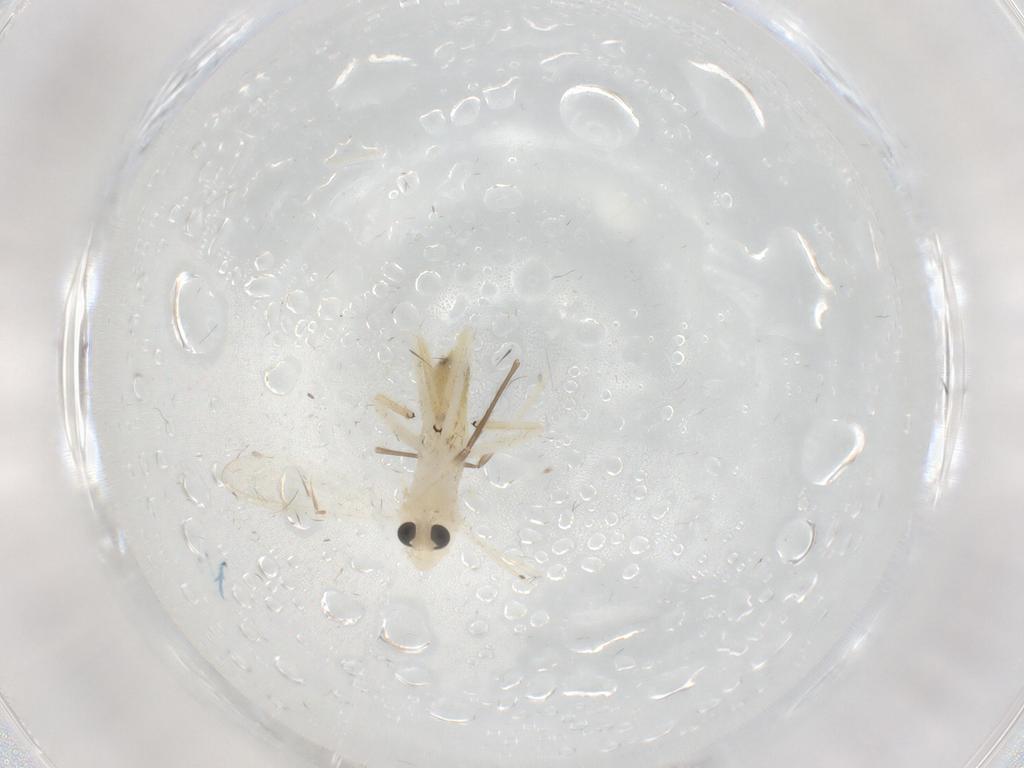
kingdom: Animalia
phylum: Arthropoda
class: Insecta
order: Diptera
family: Chironomidae
